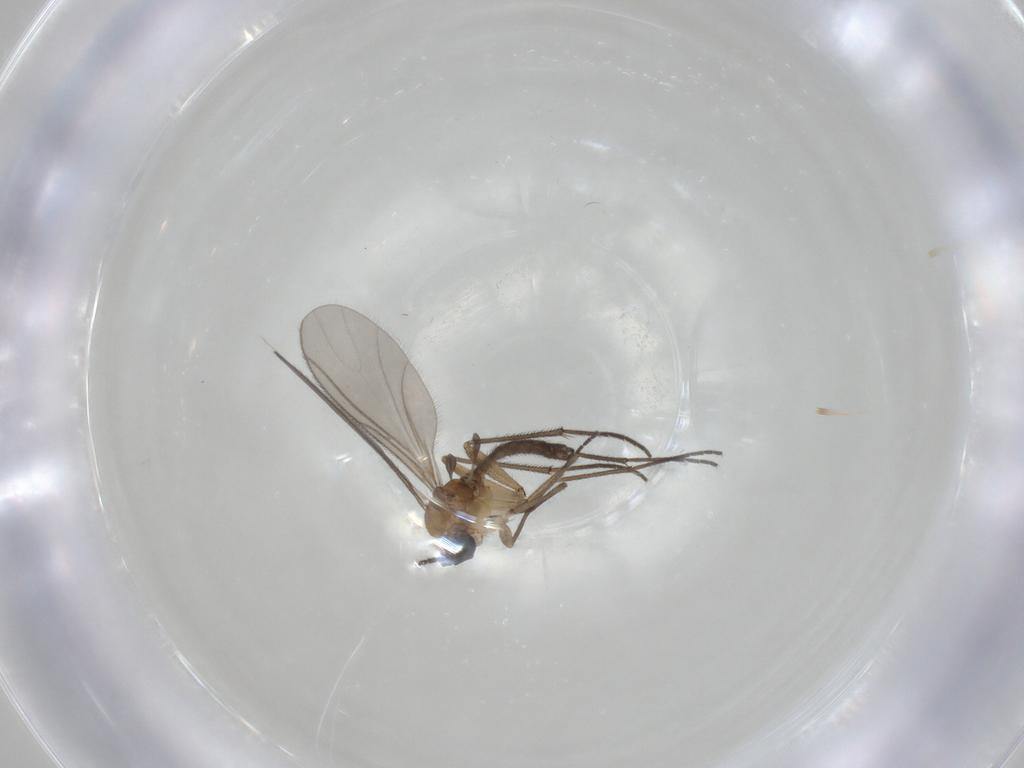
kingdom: Animalia
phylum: Arthropoda
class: Insecta
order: Diptera
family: Sciaridae
